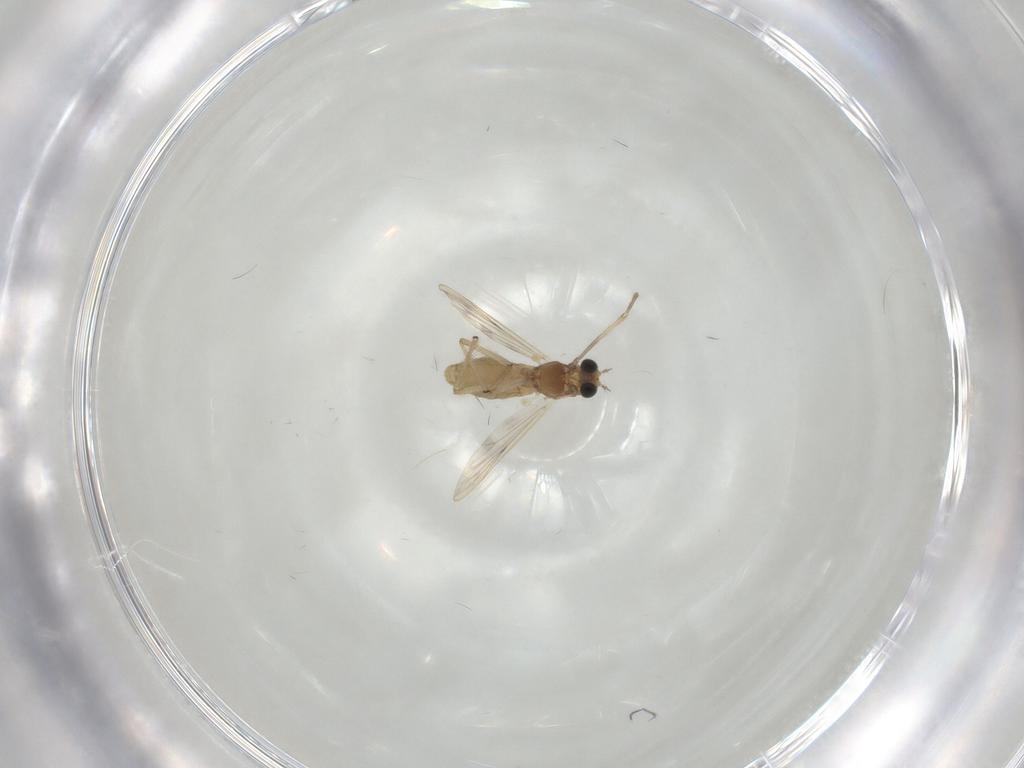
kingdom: Animalia
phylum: Arthropoda
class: Insecta
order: Diptera
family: Chironomidae
